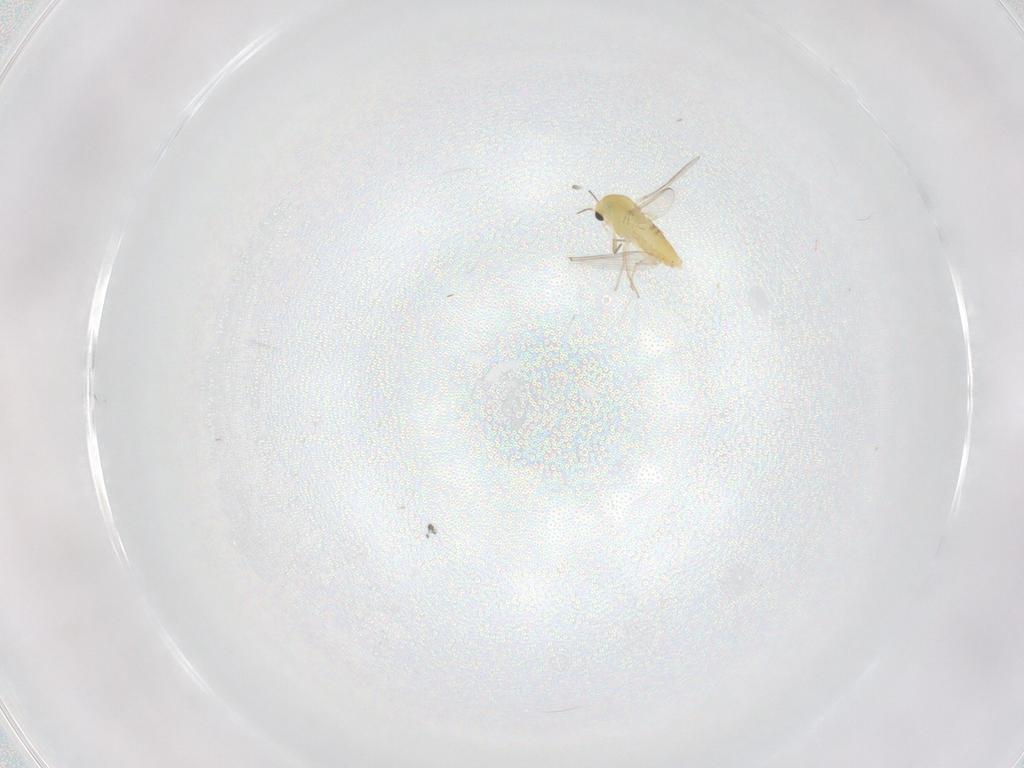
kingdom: Animalia
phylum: Arthropoda
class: Insecta
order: Diptera
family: Chironomidae
